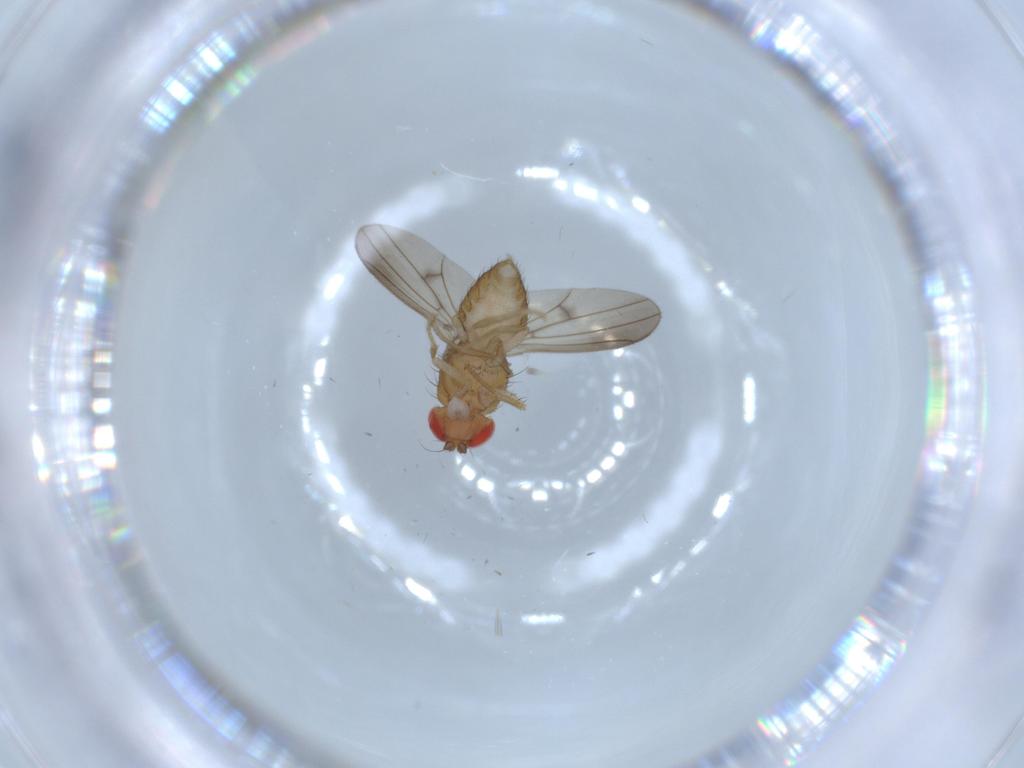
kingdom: Animalia
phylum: Arthropoda
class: Insecta
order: Diptera
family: Drosophilidae
